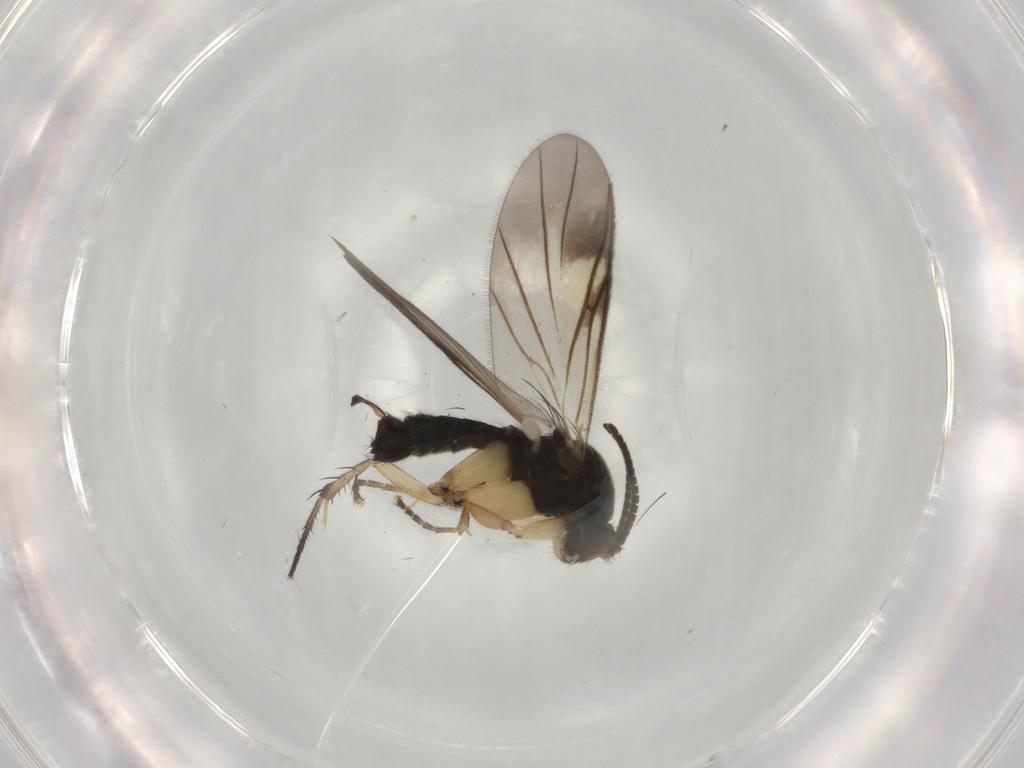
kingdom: Animalia
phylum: Arthropoda
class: Insecta
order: Diptera
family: Mycetophilidae
